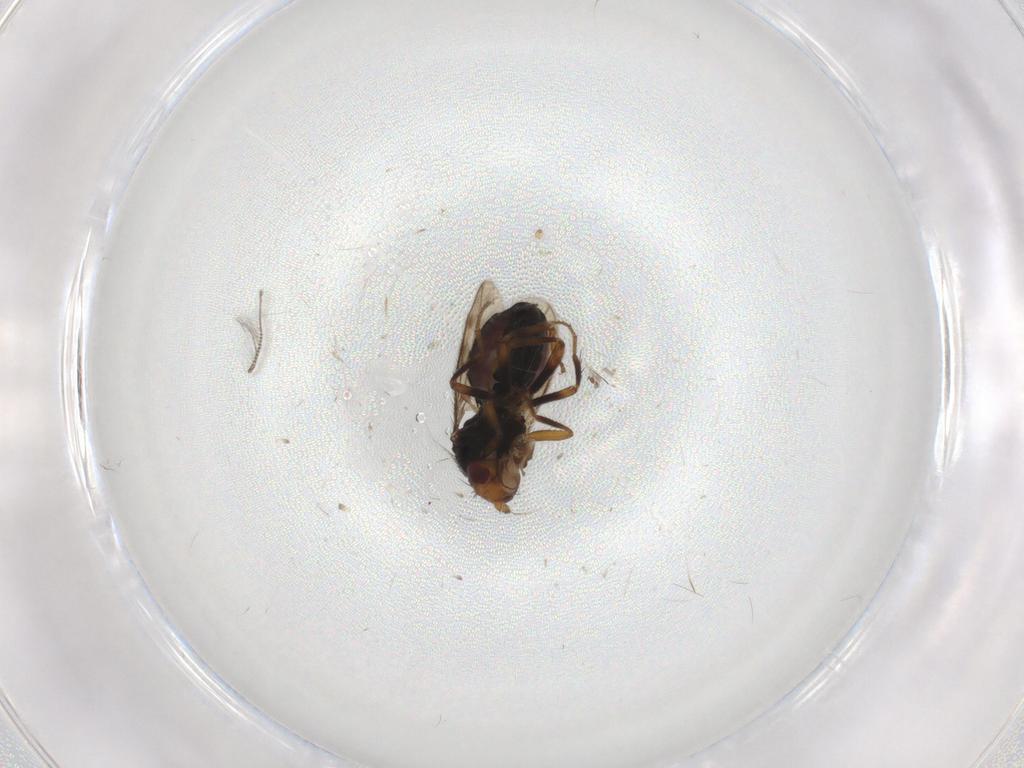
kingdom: Animalia
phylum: Arthropoda
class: Insecta
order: Diptera
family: Sphaeroceridae
